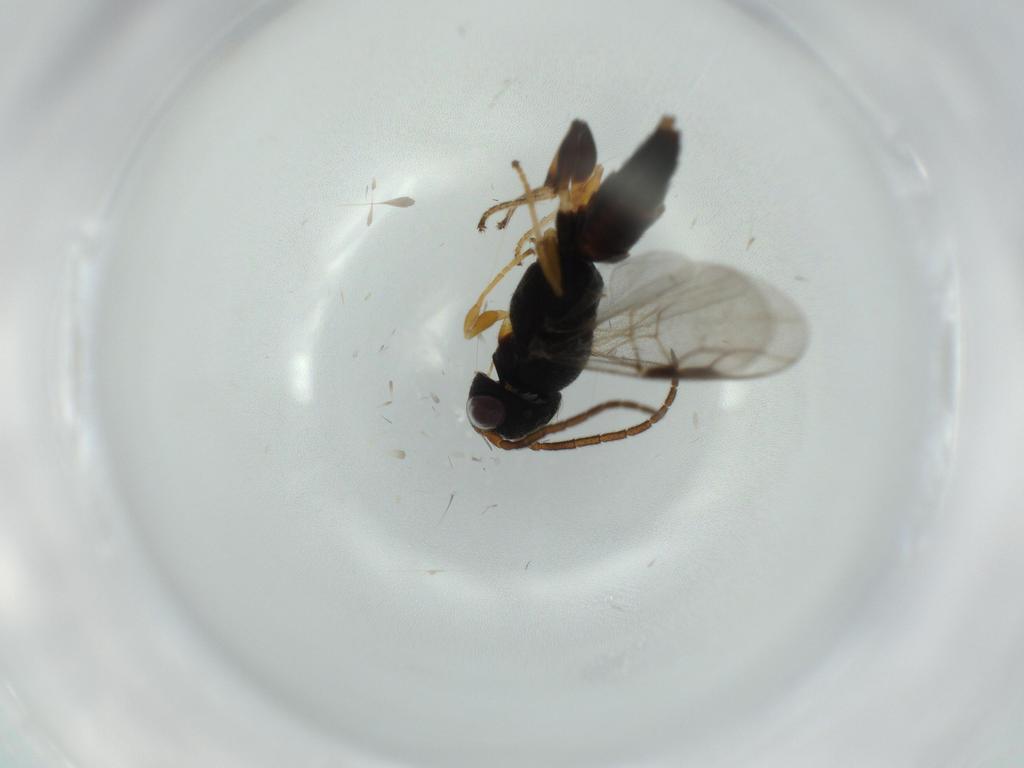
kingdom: Animalia
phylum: Arthropoda
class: Insecta
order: Hymenoptera
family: Dryinidae
